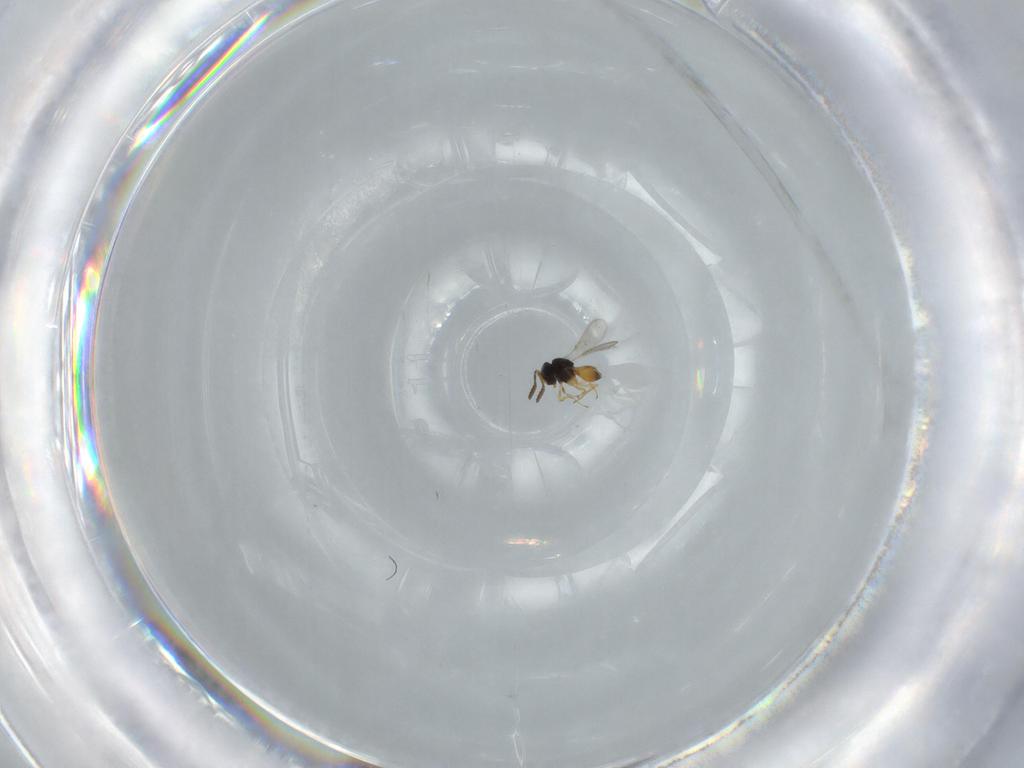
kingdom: Animalia
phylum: Arthropoda
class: Insecta
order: Hymenoptera
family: Scelionidae
